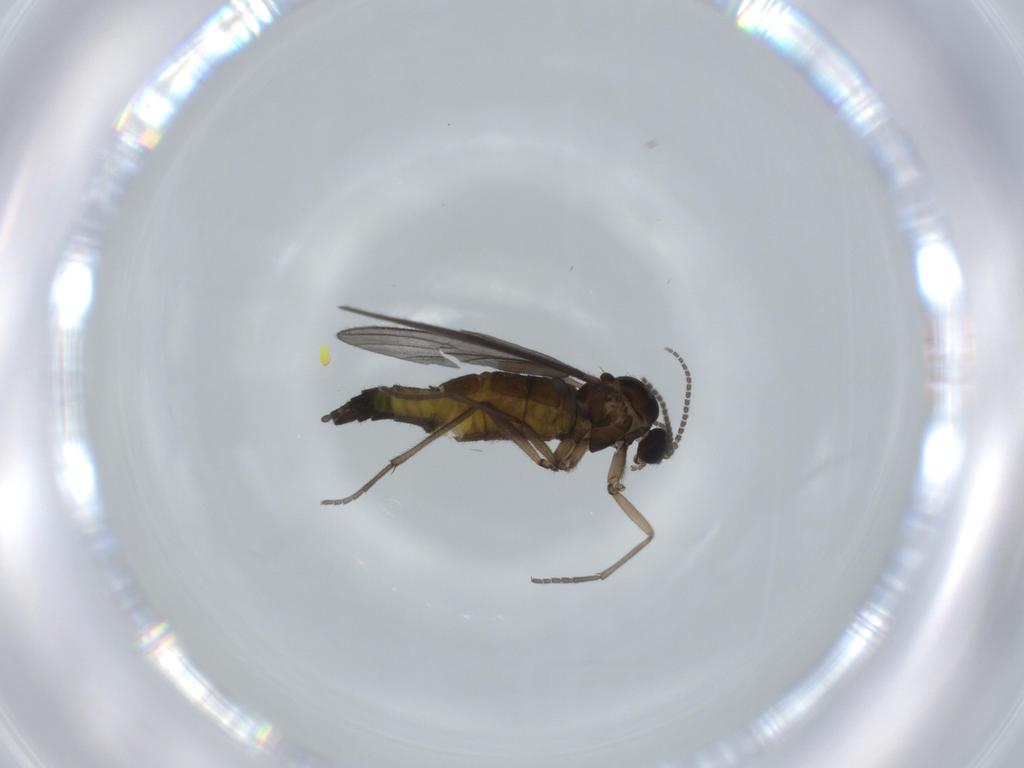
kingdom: Animalia
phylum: Arthropoda
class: Insecta
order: Diptera
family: Sciaridae
